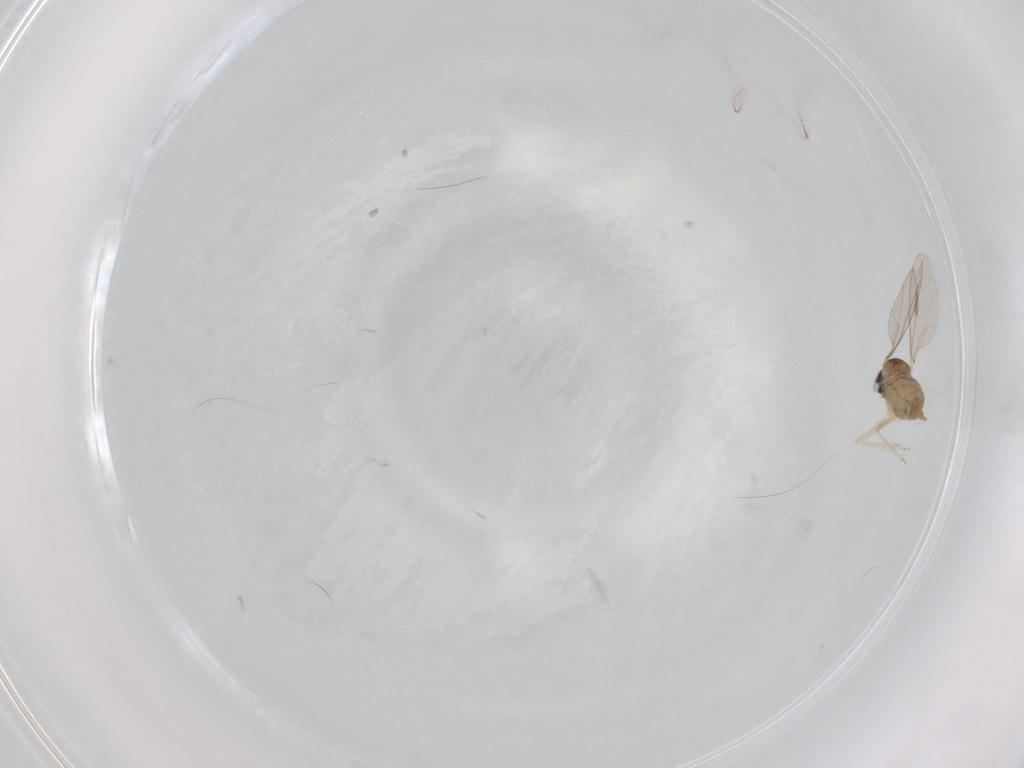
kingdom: Animalia
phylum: Arthropoda
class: Insecta
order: Diptera
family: Cecidomyiidae
